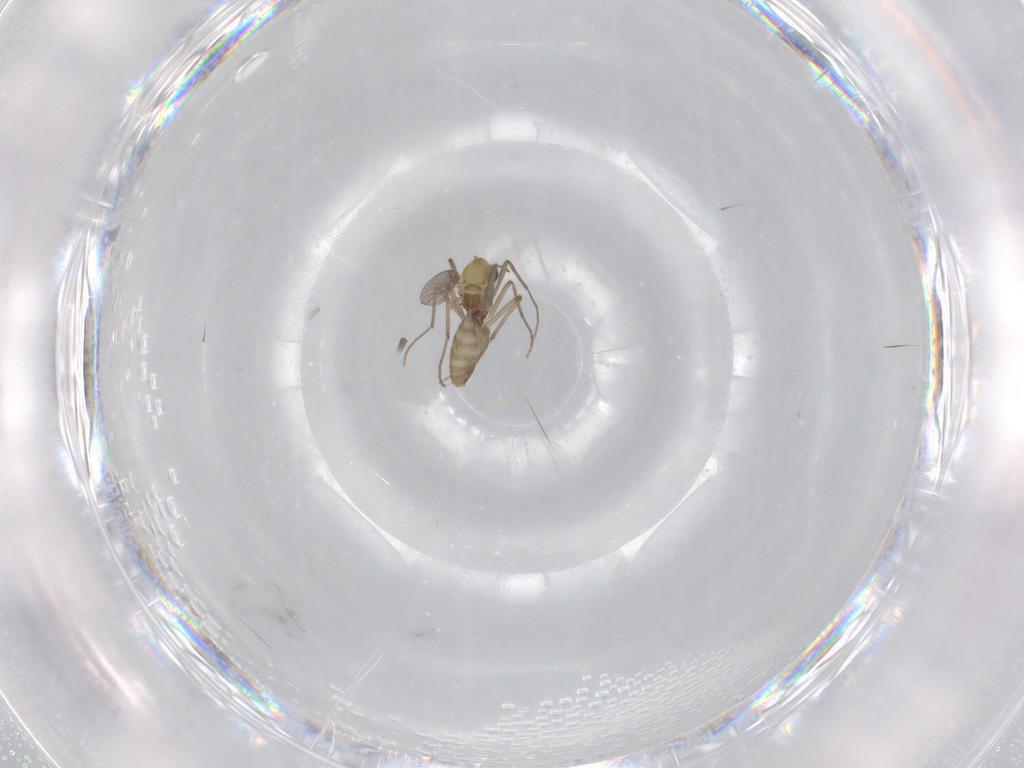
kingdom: Animalia
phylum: Arthropoda
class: Insecta
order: Diptera
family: Chironomidae
